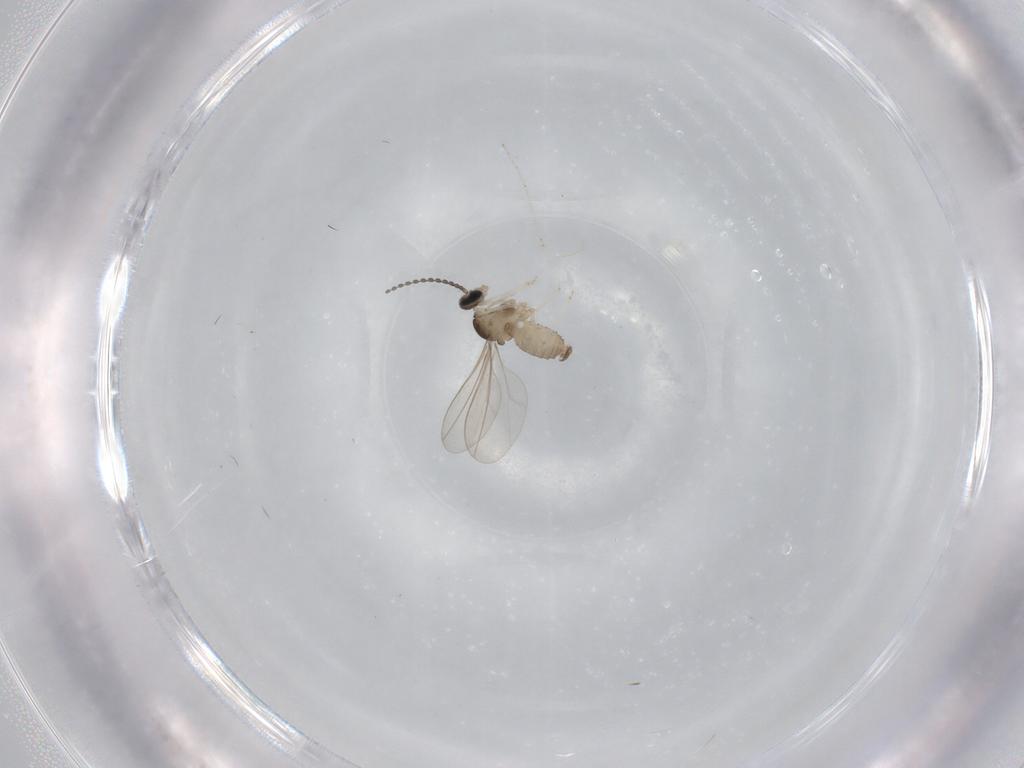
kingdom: Animalia
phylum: Arthropoda
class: Insecta
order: Diptera
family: Cecidomyiidae
